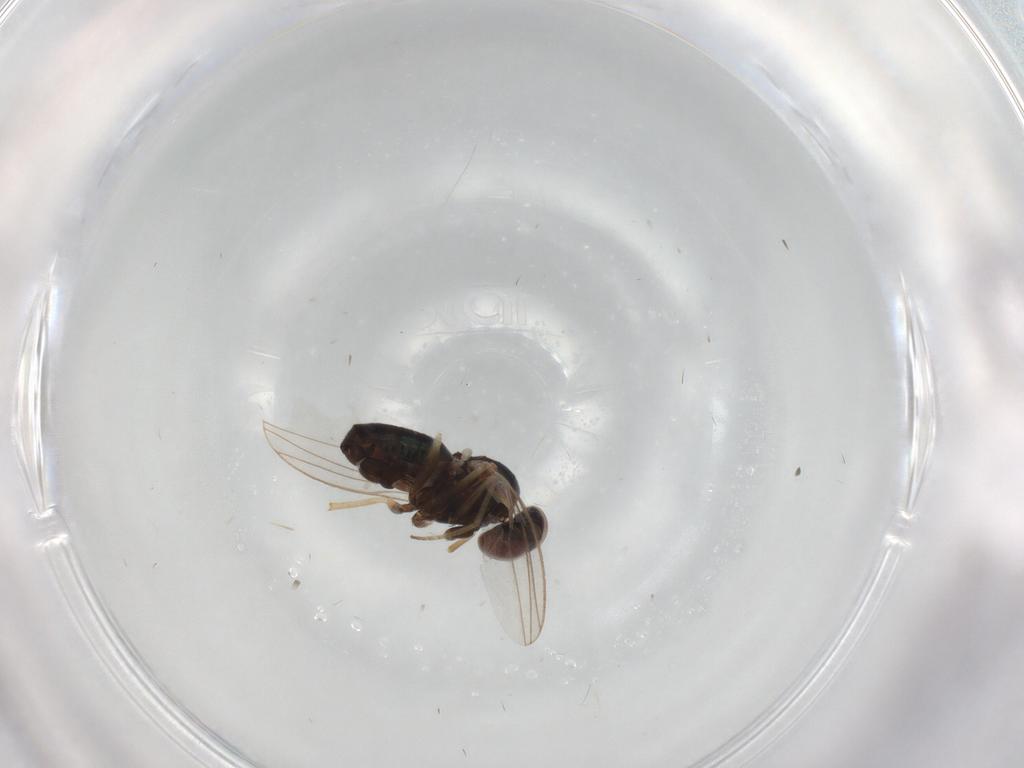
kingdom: Animalia
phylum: Arthropoda
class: Insecta
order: Diptera
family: Dolichopodidae
